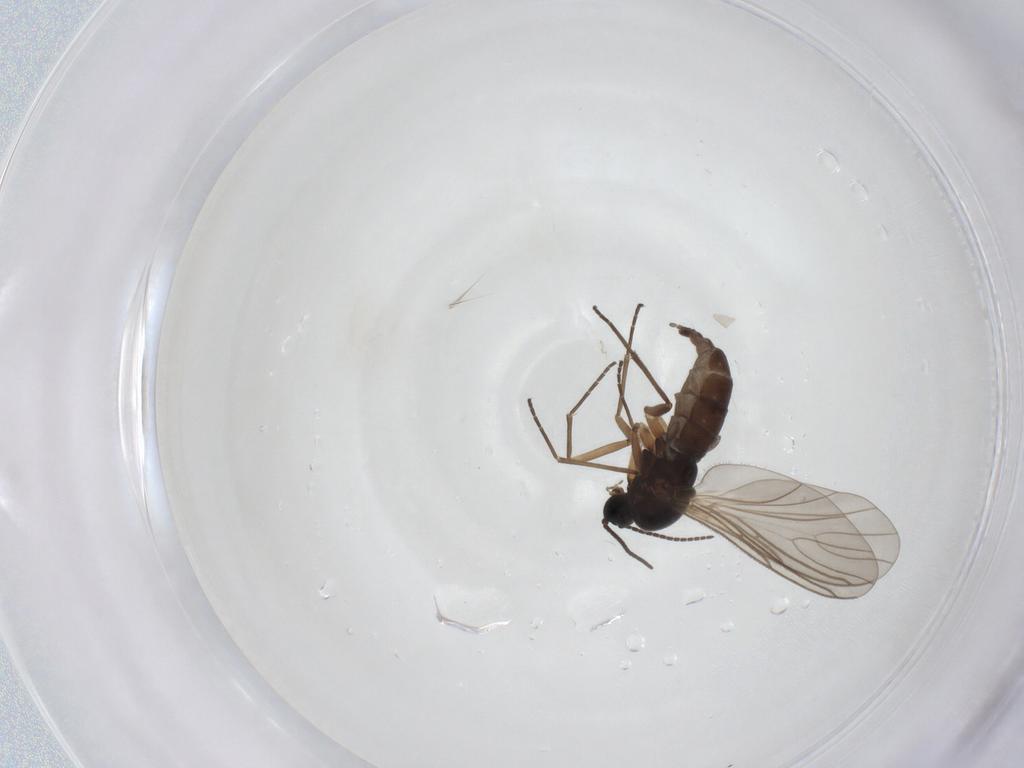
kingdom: Animalia
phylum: Arthropoda
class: Insecta
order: Diptera
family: Sciaridae
